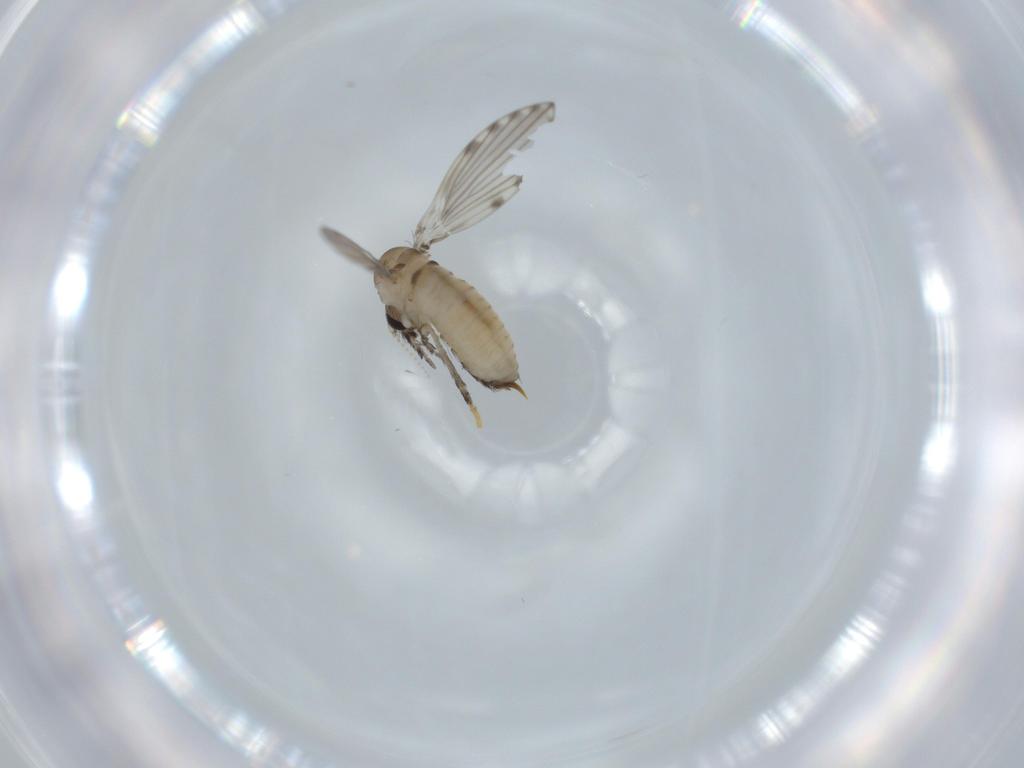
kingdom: Animalia
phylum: Arthropoda
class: Insecta
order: Diptera
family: Psychodidae
